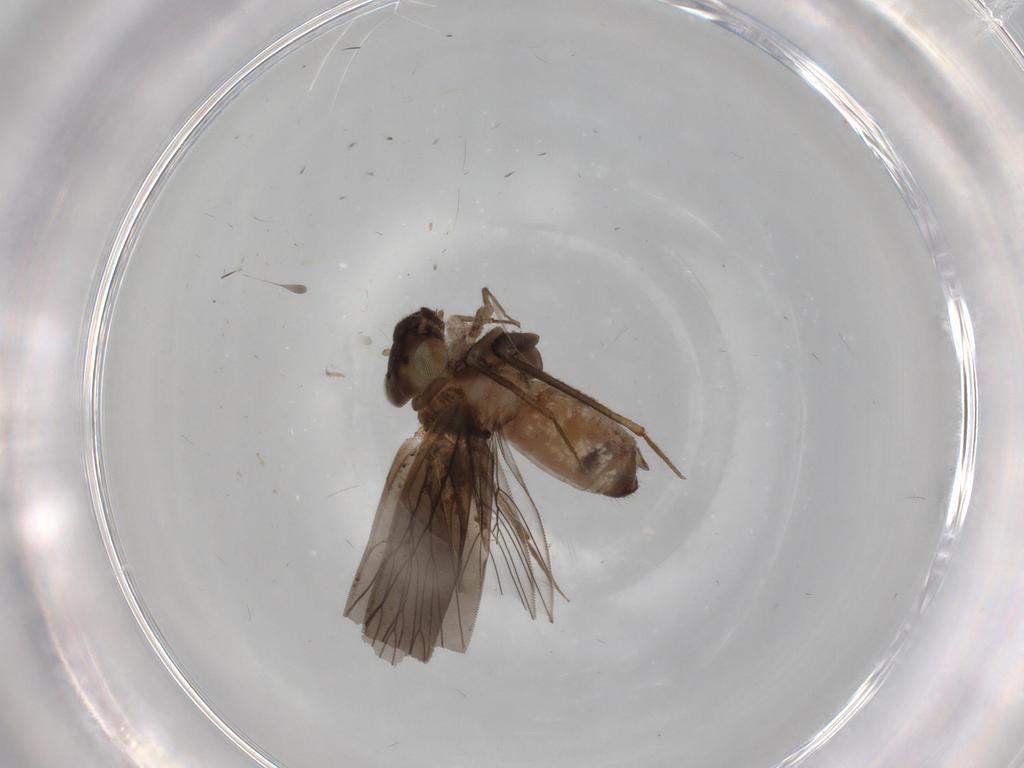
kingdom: Animalia
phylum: Arthropoda
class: Insecta
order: Psocodea
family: Lepidopsocidae
